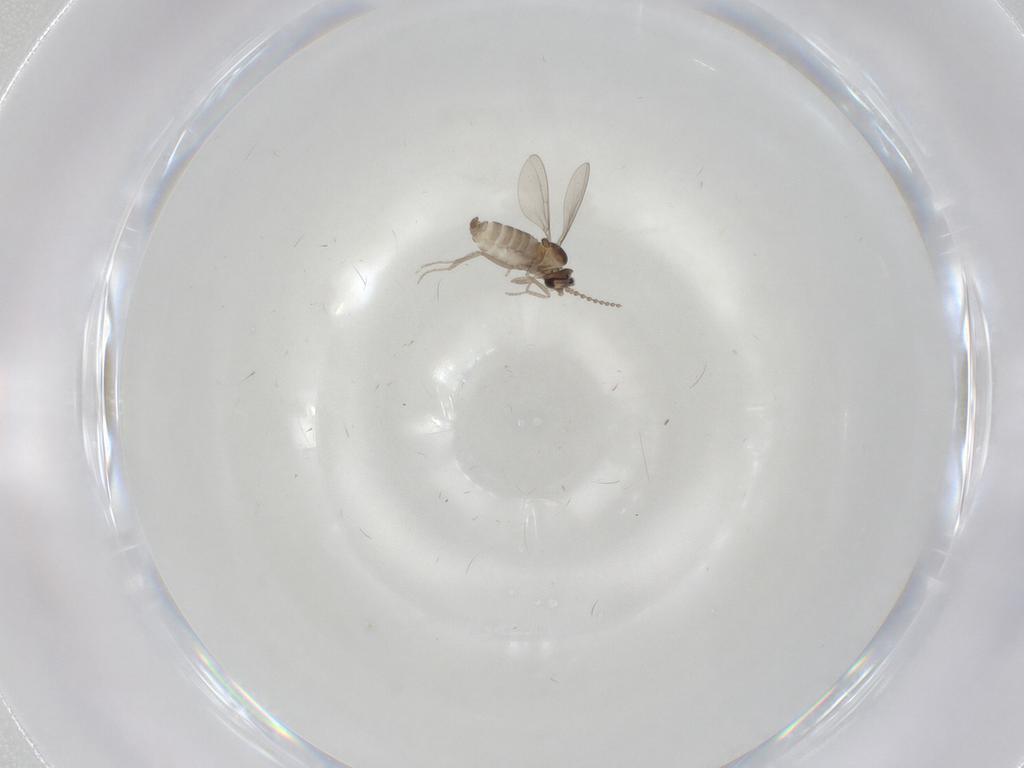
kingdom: Animalia
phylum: Arthropoda
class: Insecta
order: Diptera
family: Cecidomyiidae
